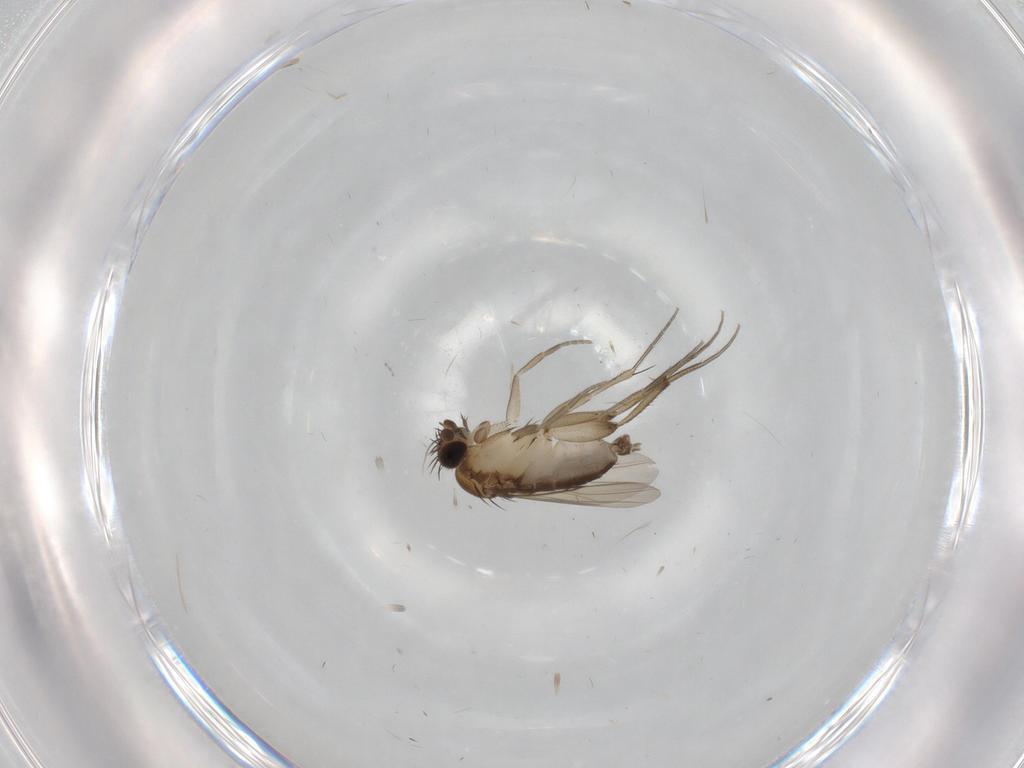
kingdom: Animalia
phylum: Arthropoda
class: Insecta
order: Diptera
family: Phoridae
